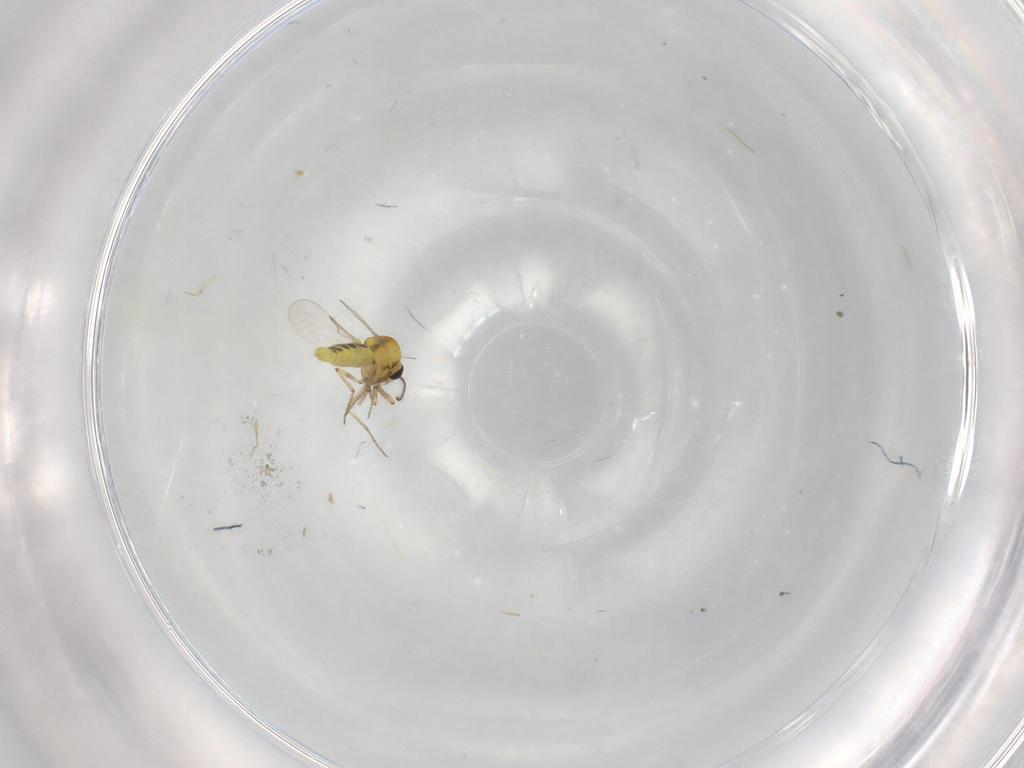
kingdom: Animalia
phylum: Arthropoda
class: Insecta
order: Diptera
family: Ceratopogonidae
